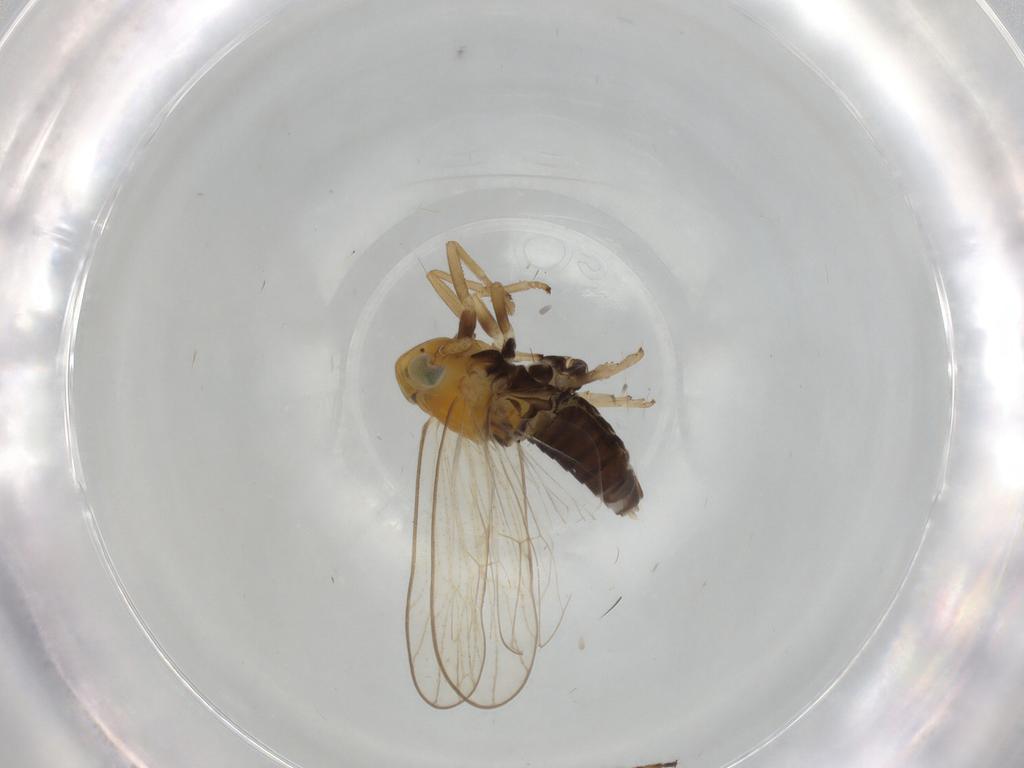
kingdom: Animalia
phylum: Arthropoda
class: Insecta
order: Hemiptera
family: Delphacidae
